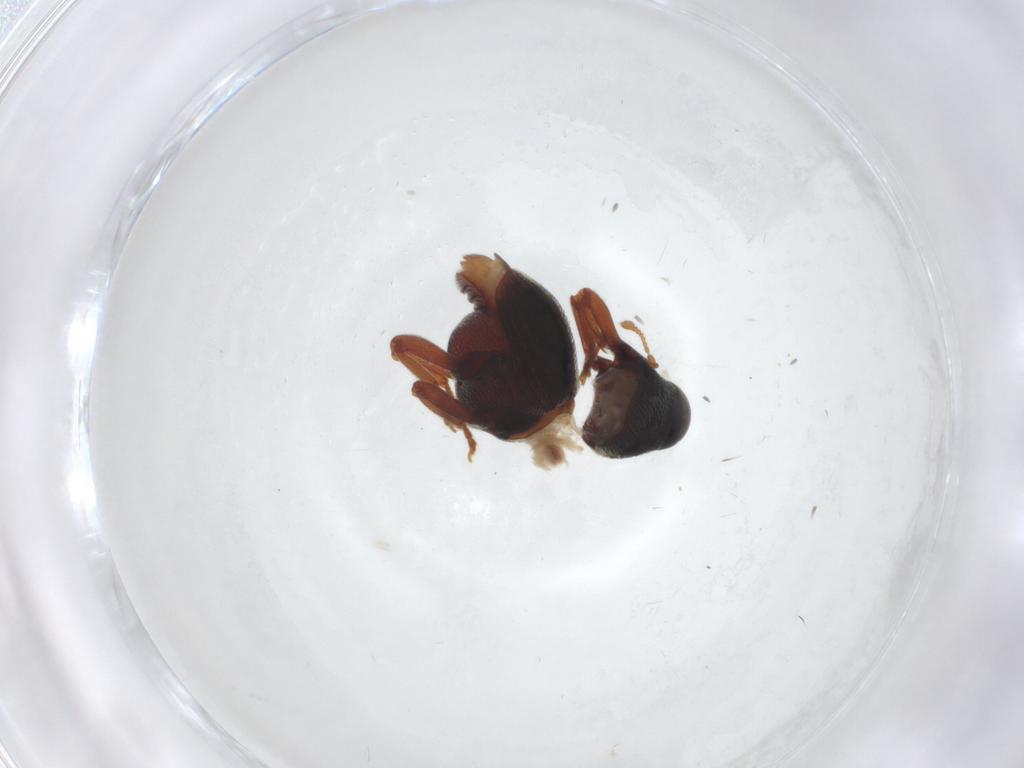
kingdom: Animalia
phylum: Arthropoda
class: Insecta
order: Coleoptera
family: Curculionidae
